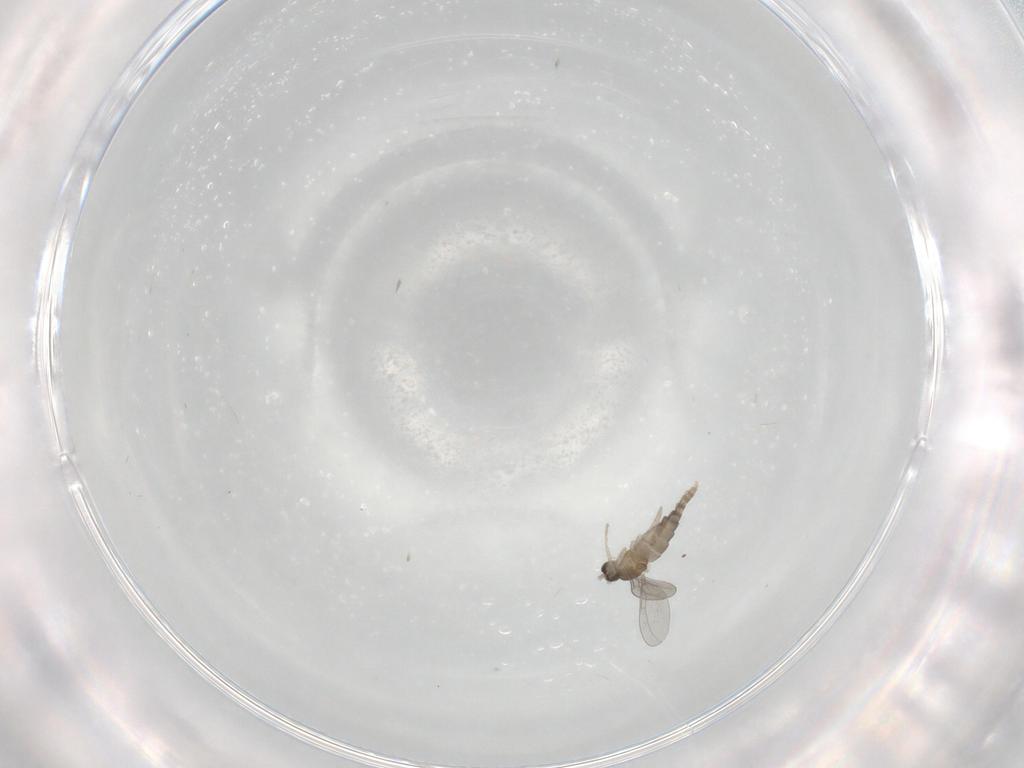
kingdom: Animalia
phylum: Arthropoda
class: Insecta
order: Diptera
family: Cecidomyiidae
